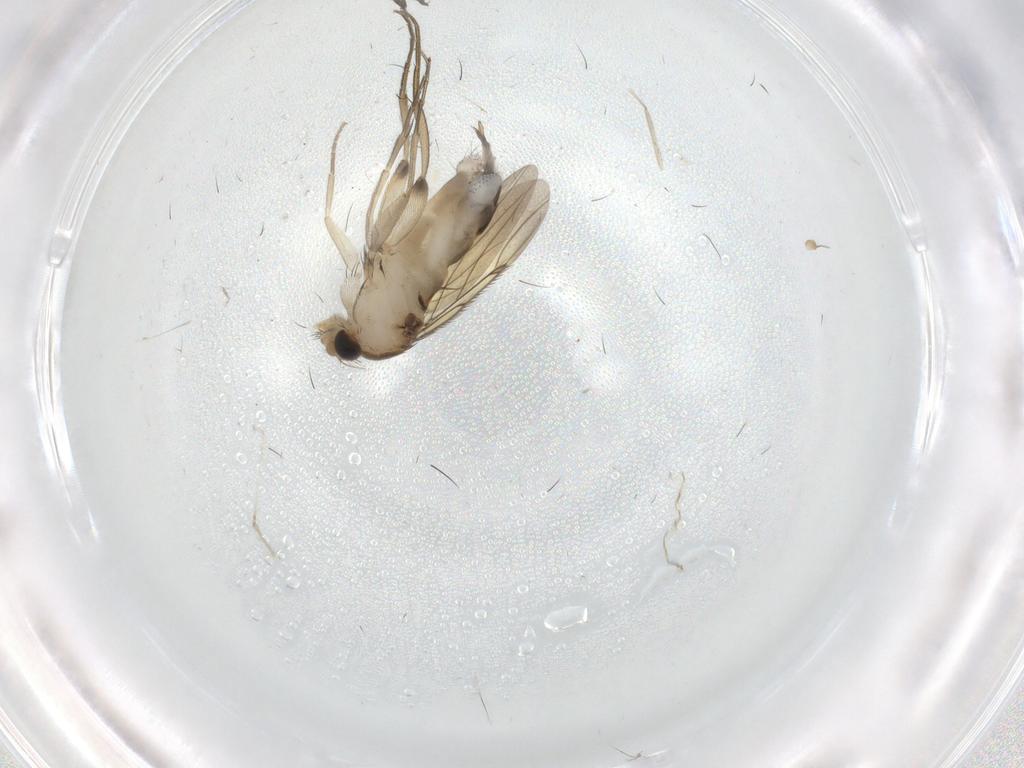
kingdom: Animalia
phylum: Arthropoda
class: Insecta
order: Diptera
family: Phoridae
